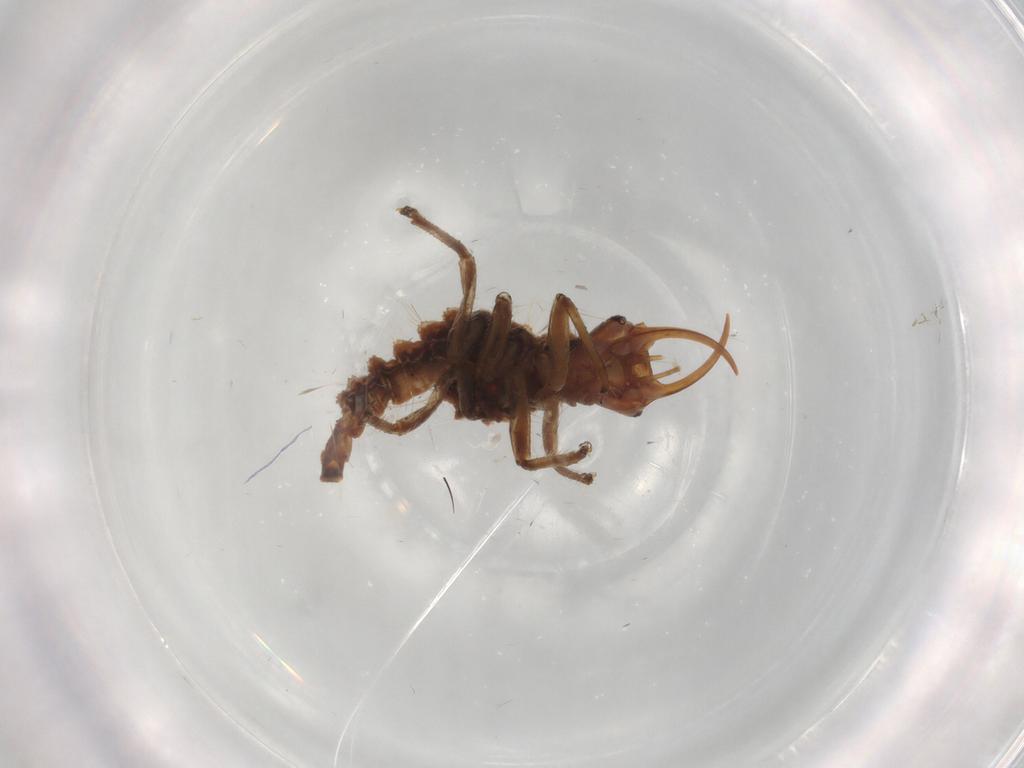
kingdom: Animalia
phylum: Arthropoda
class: Insecta
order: Neuroptera
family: Chrysopidae
